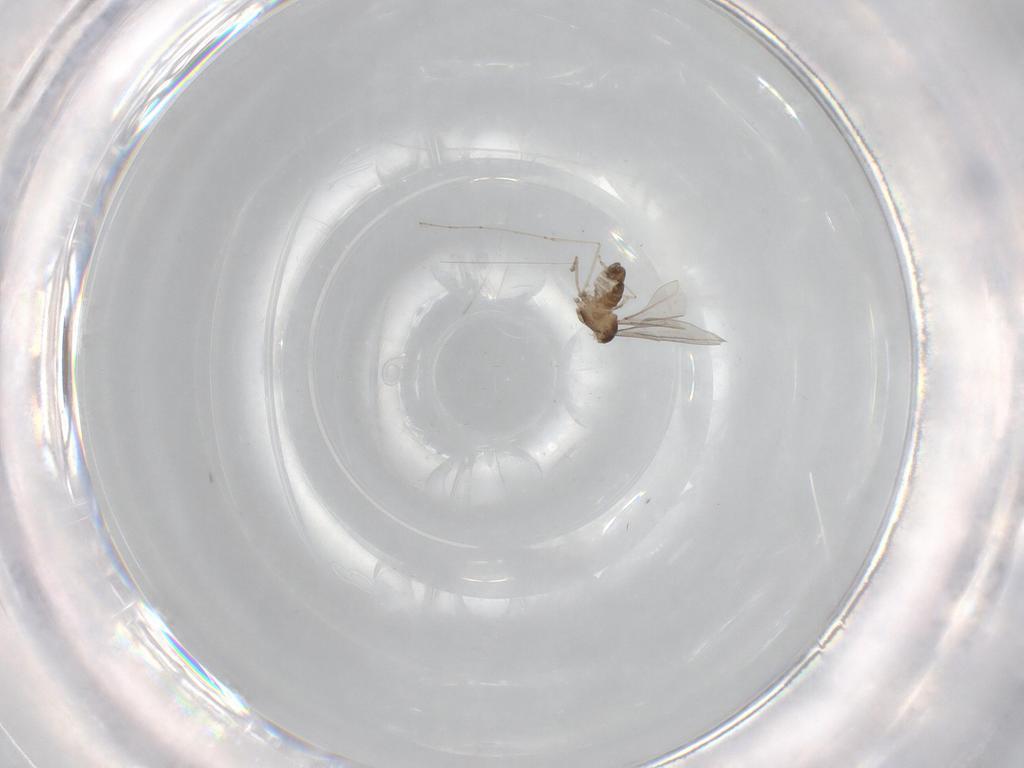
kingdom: Animalia
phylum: Arthropoda
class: Insecta
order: Diptera
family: Cecidomyiidae
